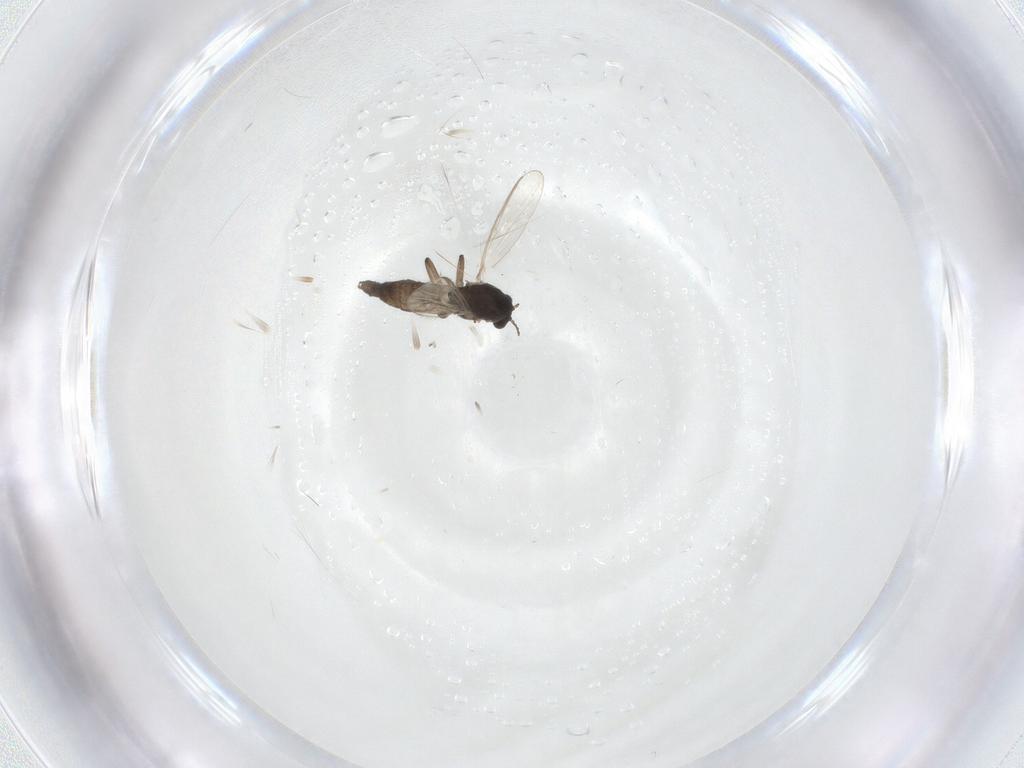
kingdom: Animalia
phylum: Arthropoda
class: Insecta
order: Diptera
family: Chironomidae
